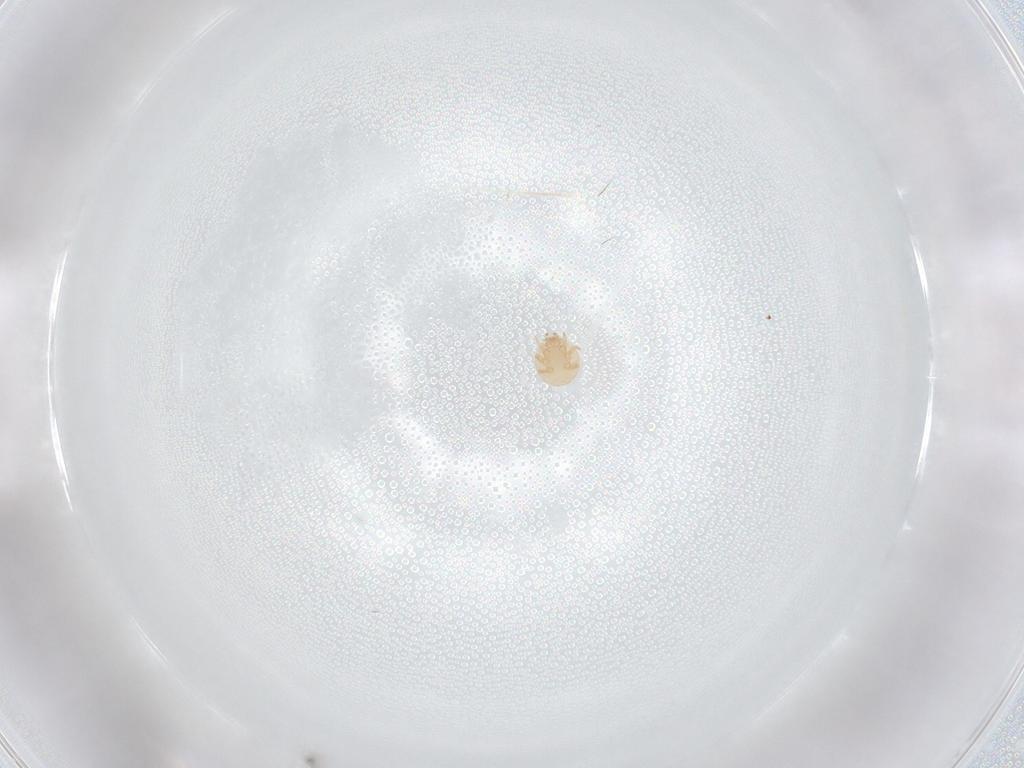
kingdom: Animalia
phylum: Arthropoda
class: Arachnida
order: Mesostigmata
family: Trematuridae
